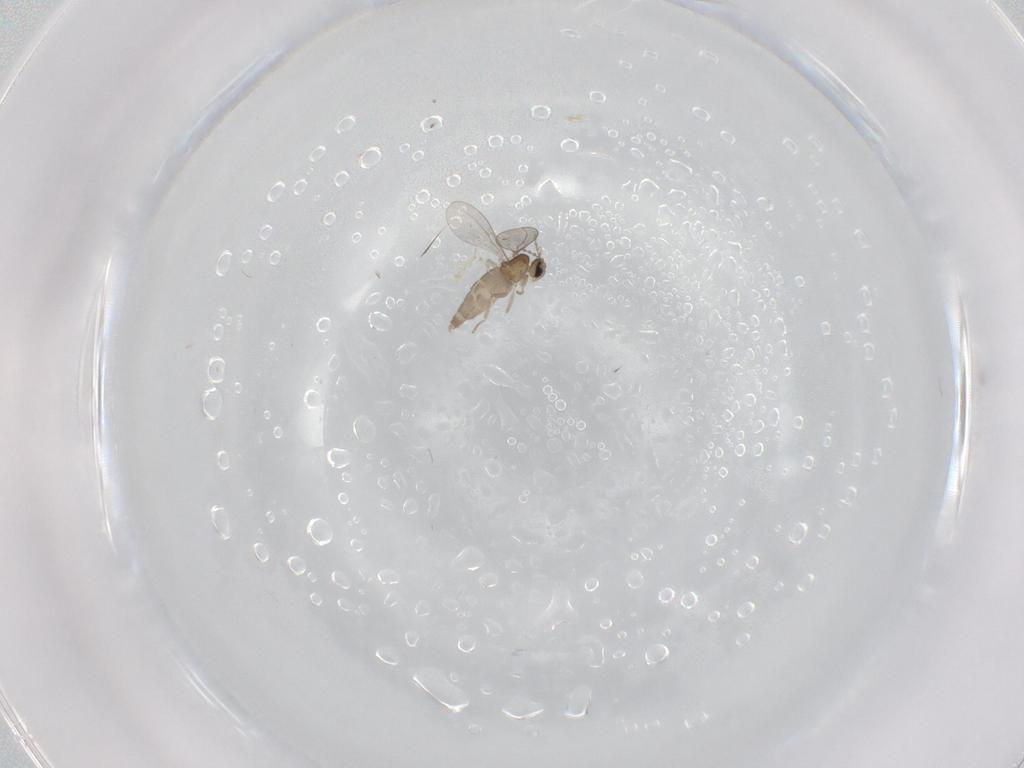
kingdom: Animalia
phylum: Arthropoda
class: Insecta
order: Diptera
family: Cecidomyiidae
